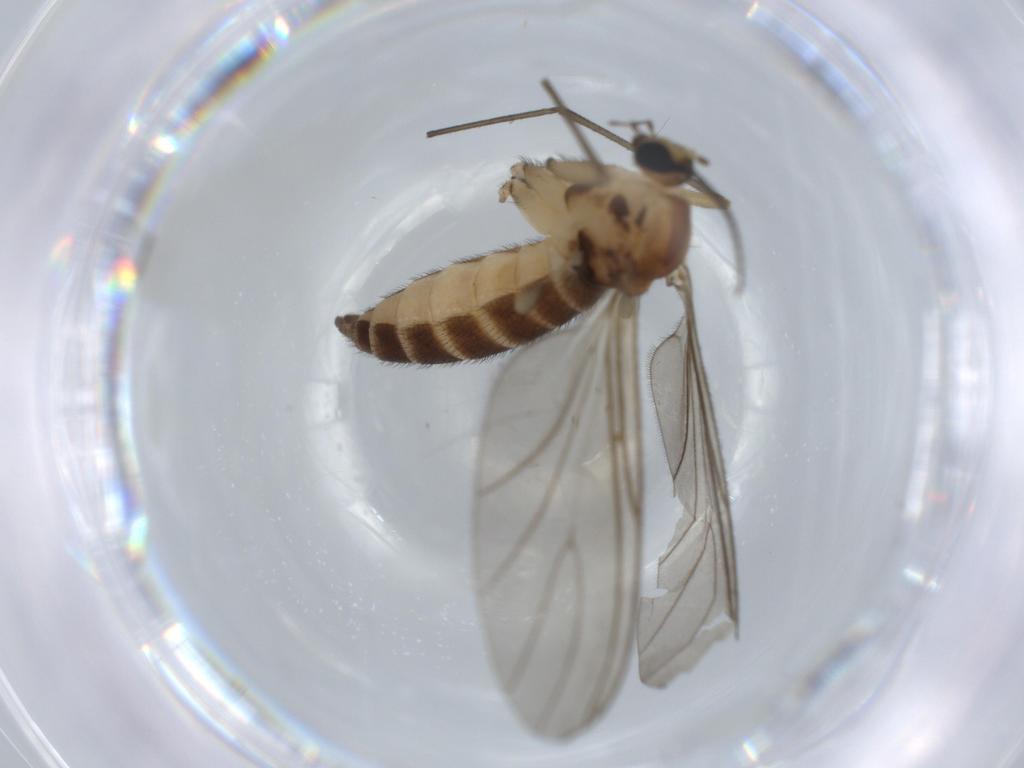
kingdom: Animalia
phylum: Arthropoda
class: Insecta
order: Diptera
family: Sciaridae
